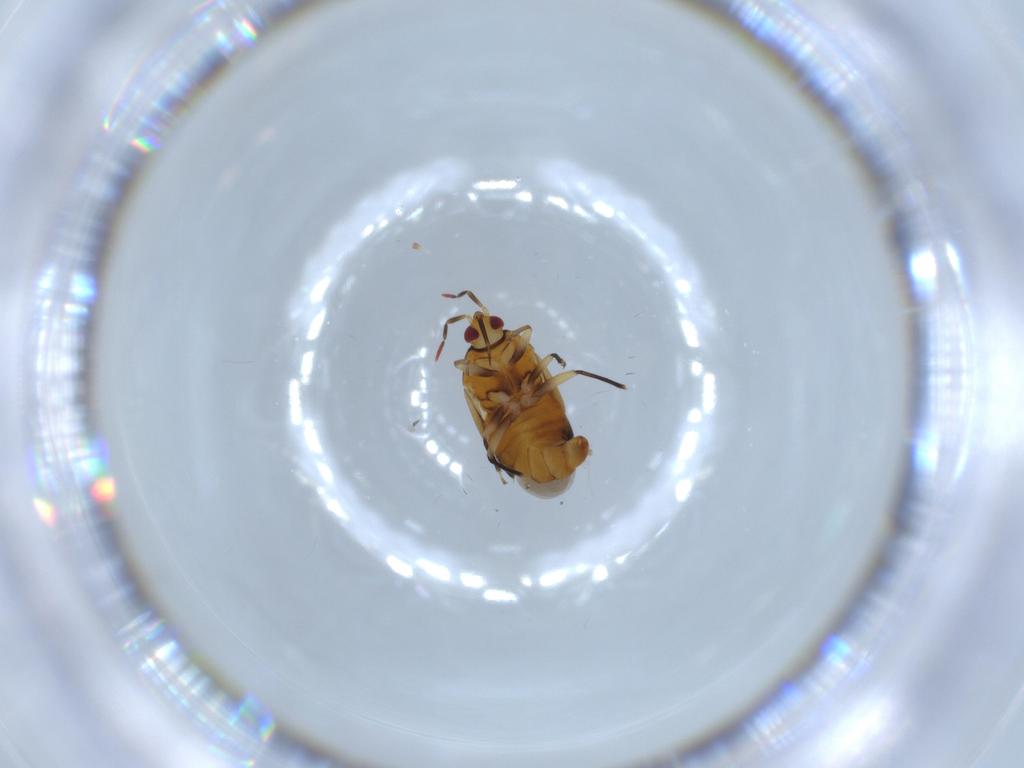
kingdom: Animalia
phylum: Arthropoda
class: Insecta
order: Hemiptera
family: Anthocoridae
